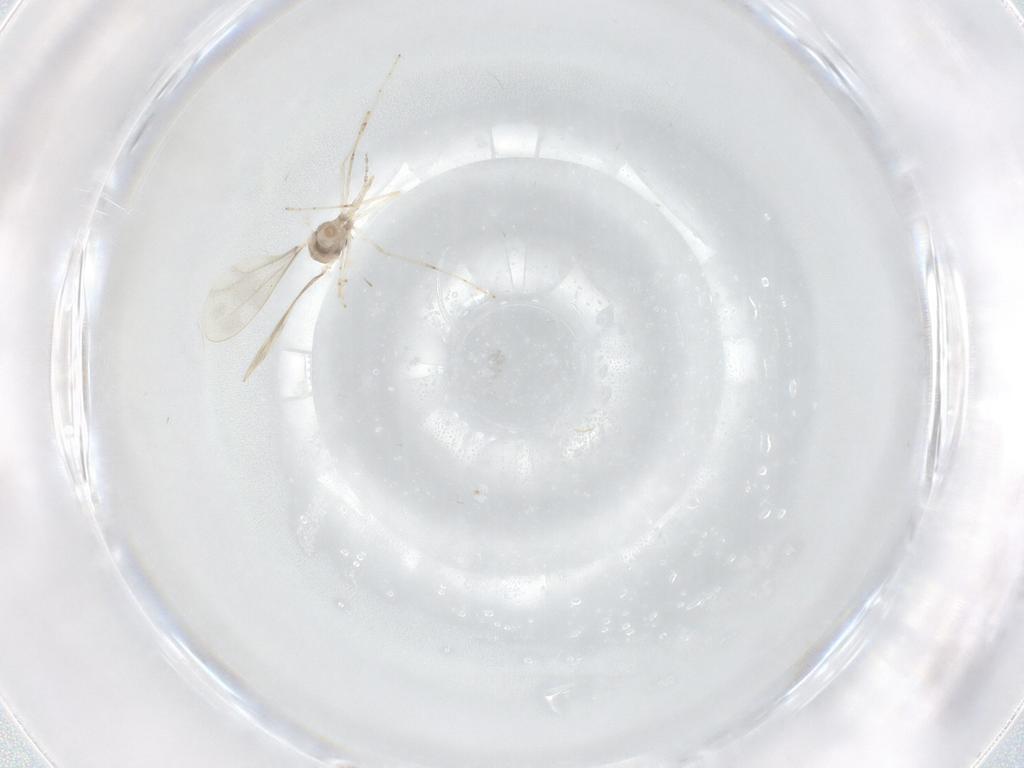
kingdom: Animalia
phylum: Arthropoda
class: Insecta
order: Diptera
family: Cecidomyiidae
